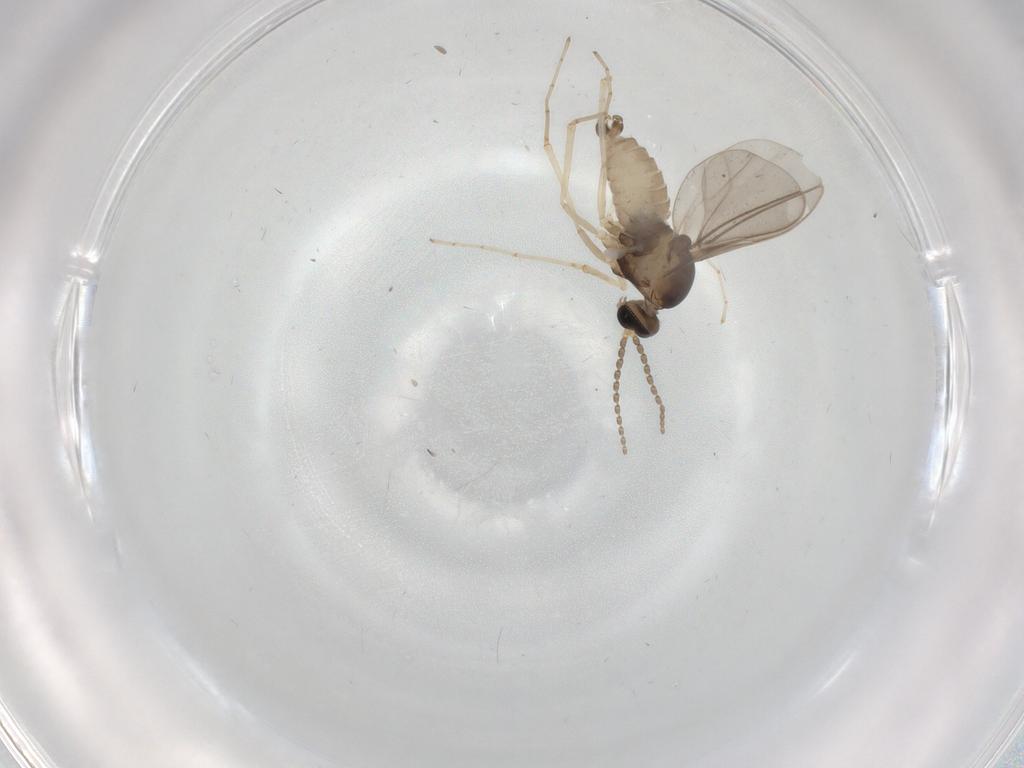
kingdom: Animalia
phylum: Arthropoda
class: Insecta
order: Diptera
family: Cecidomyiidae
